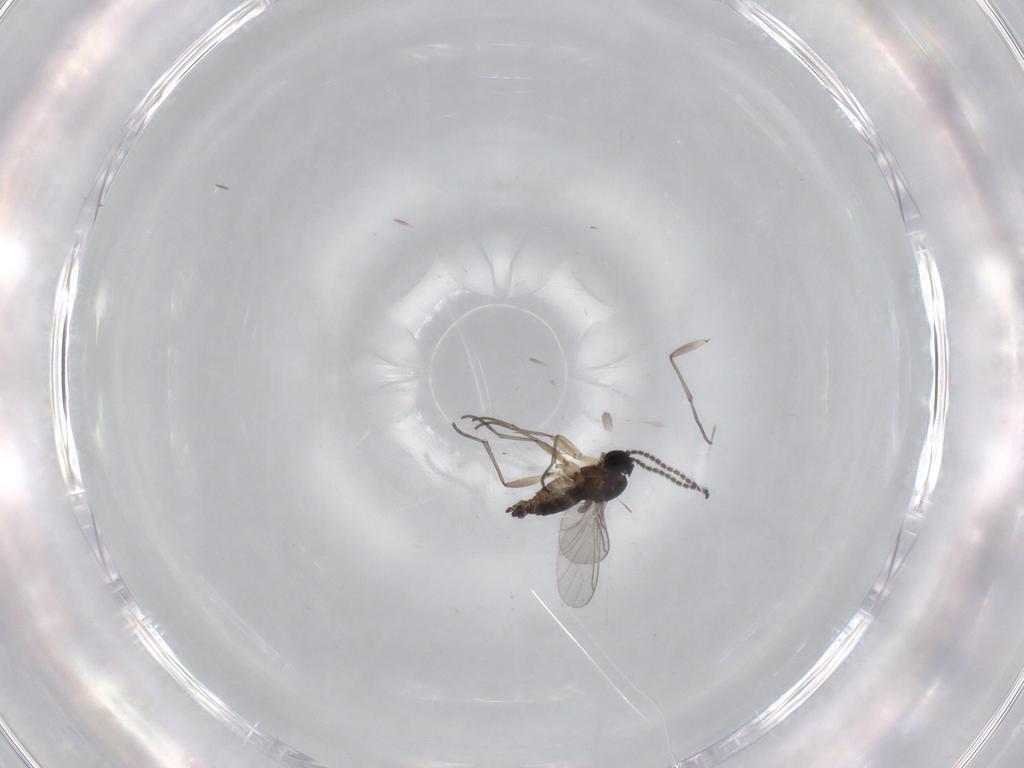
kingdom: Animalia
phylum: Arthropoda
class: Insecta
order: Diptera
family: Sciaridae
